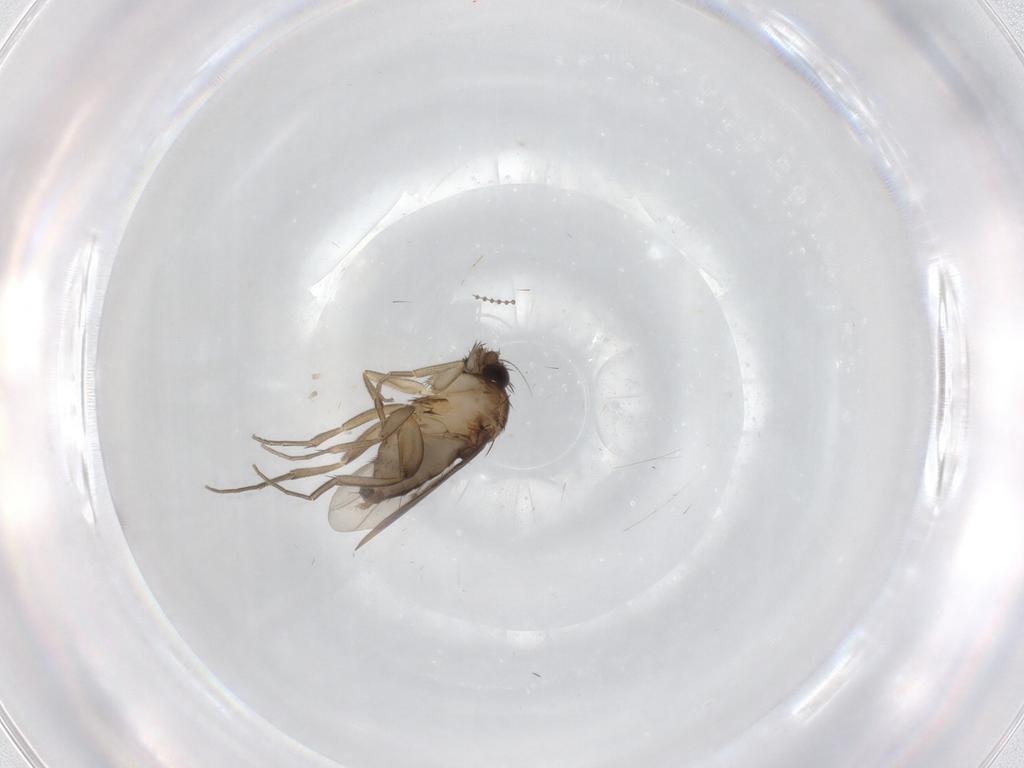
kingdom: Animalia
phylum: Arthropoda
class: Insecta
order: Diptera
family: Phoridae
